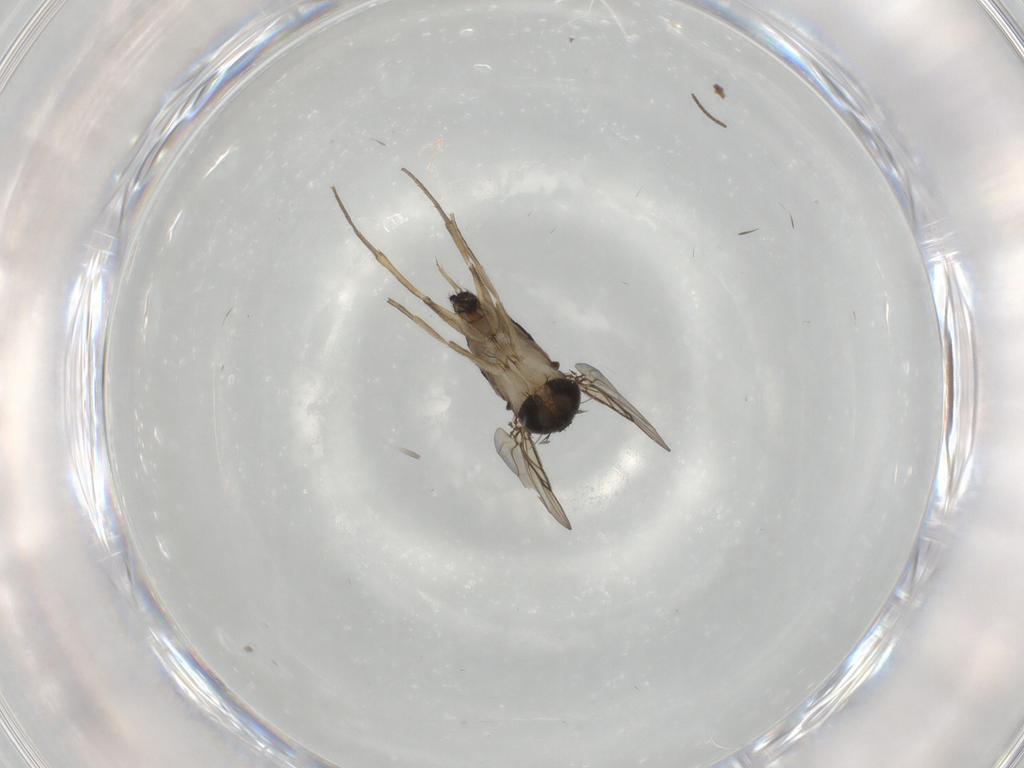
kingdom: Animalia
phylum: Arthropoda
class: Insecta
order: Diptera
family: Phoridae
